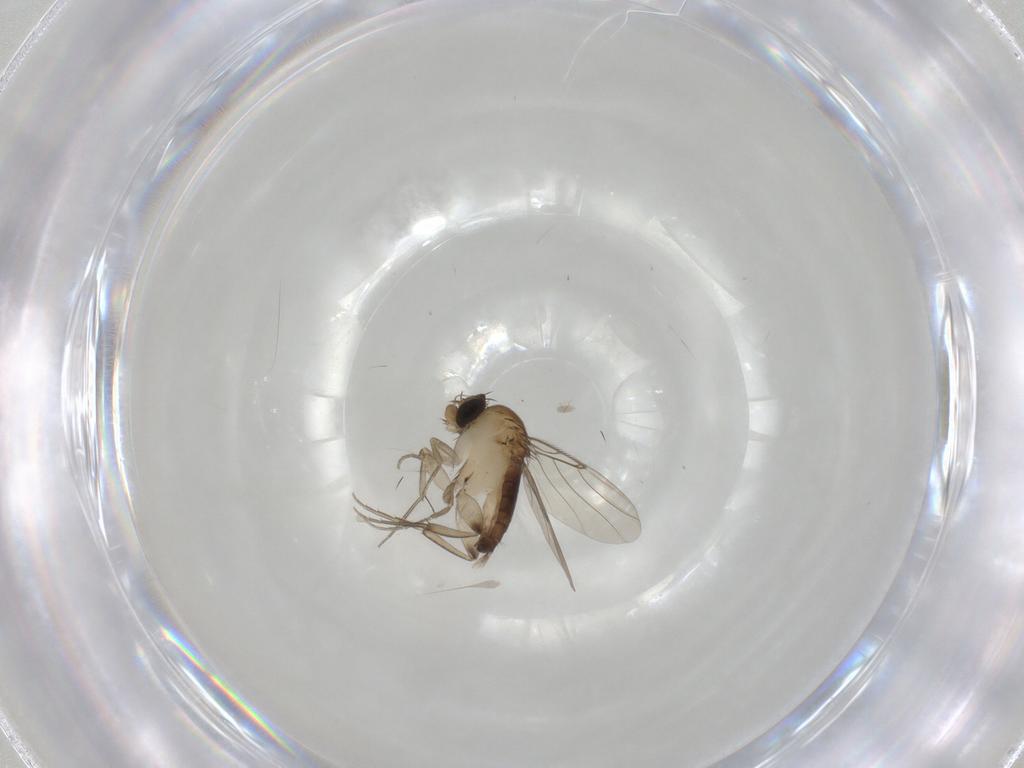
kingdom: Animalia
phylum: Arthropoda
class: Insecta
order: Diptera
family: Phoridae
